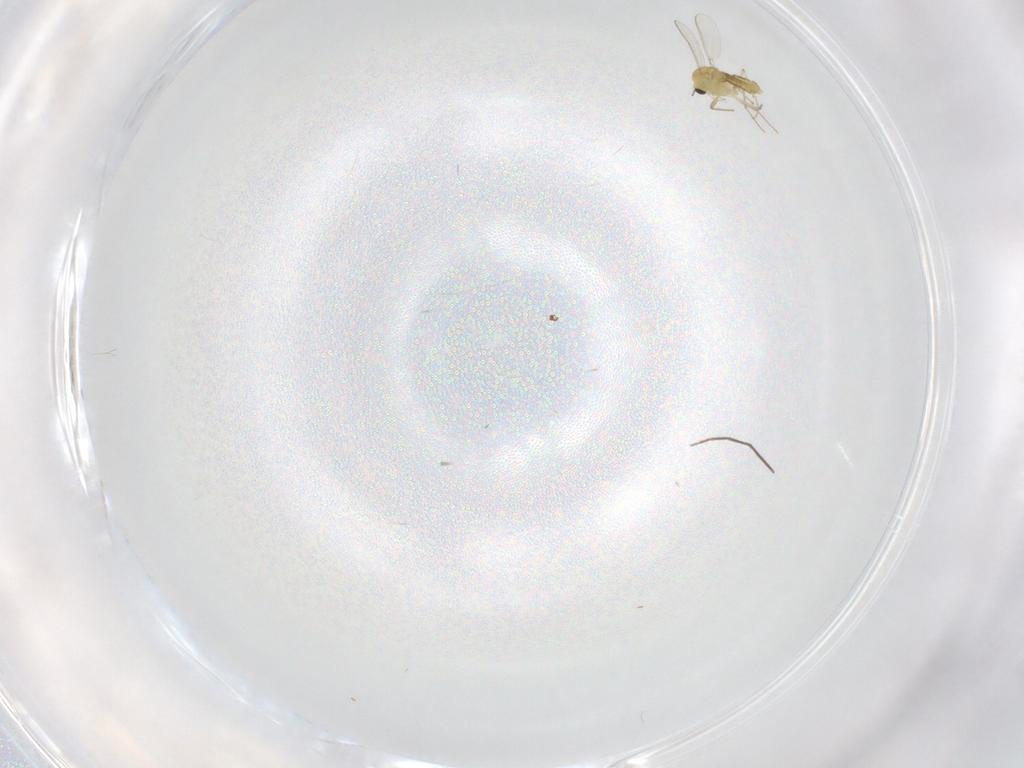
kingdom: Animalia
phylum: Arthropoda
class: Insecta
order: Diptera
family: Chironomidae
